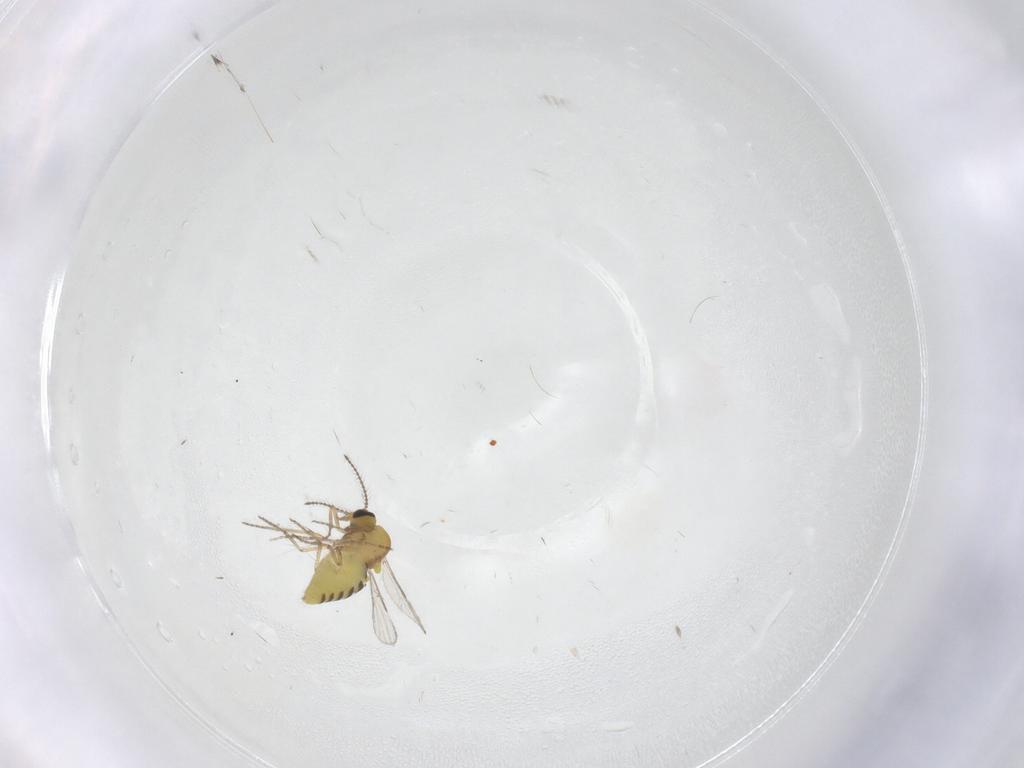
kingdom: Animalia
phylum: Arthropoda
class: Insecta
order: Diptera
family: Ceratopogonidae
